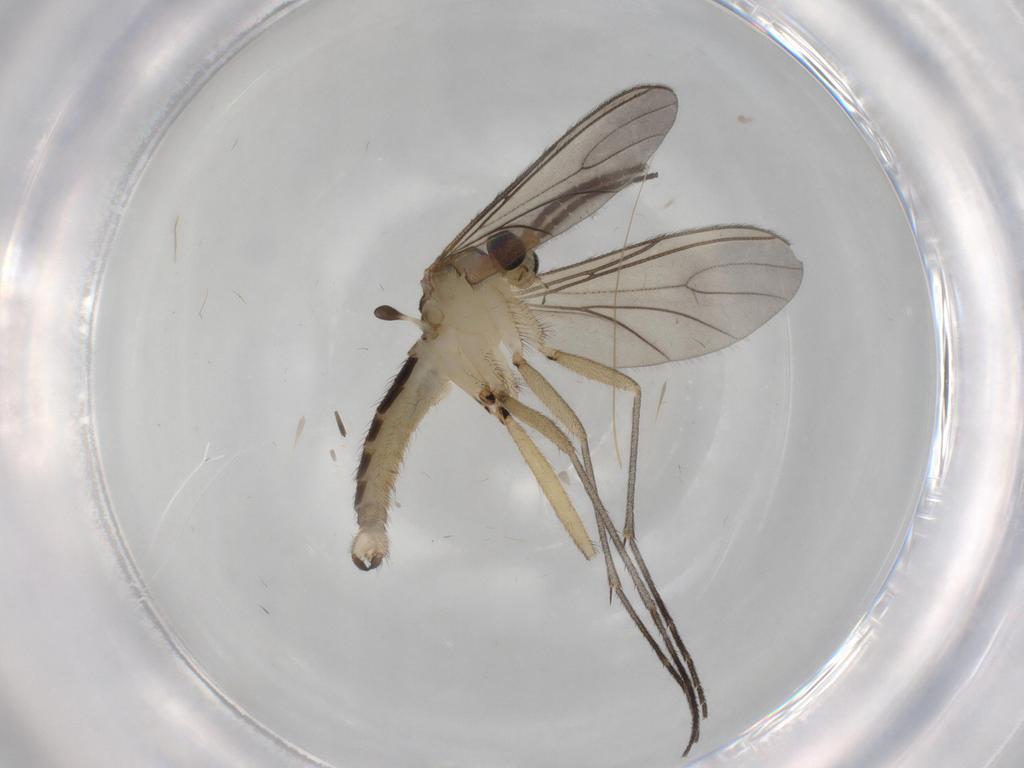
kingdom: Animalia
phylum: Arthropoda
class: Insecta
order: Diptera
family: Sciaridae
